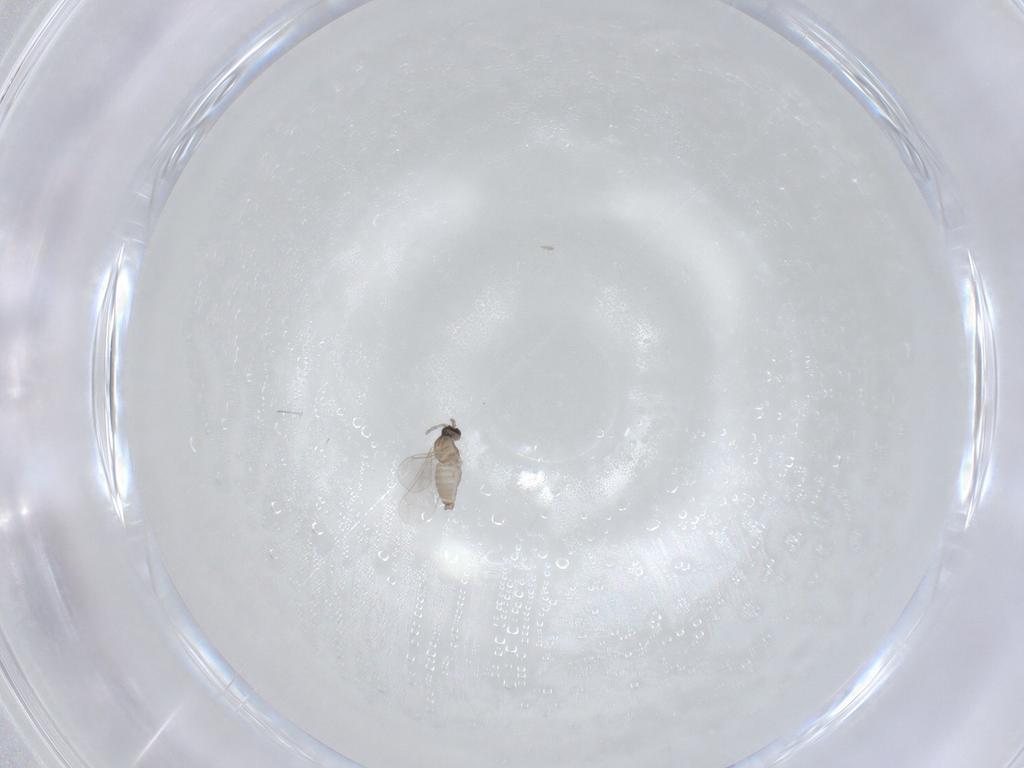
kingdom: Animalia
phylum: Arthropoda
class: Insecta
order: Diptera
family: Cecidomyiidae
